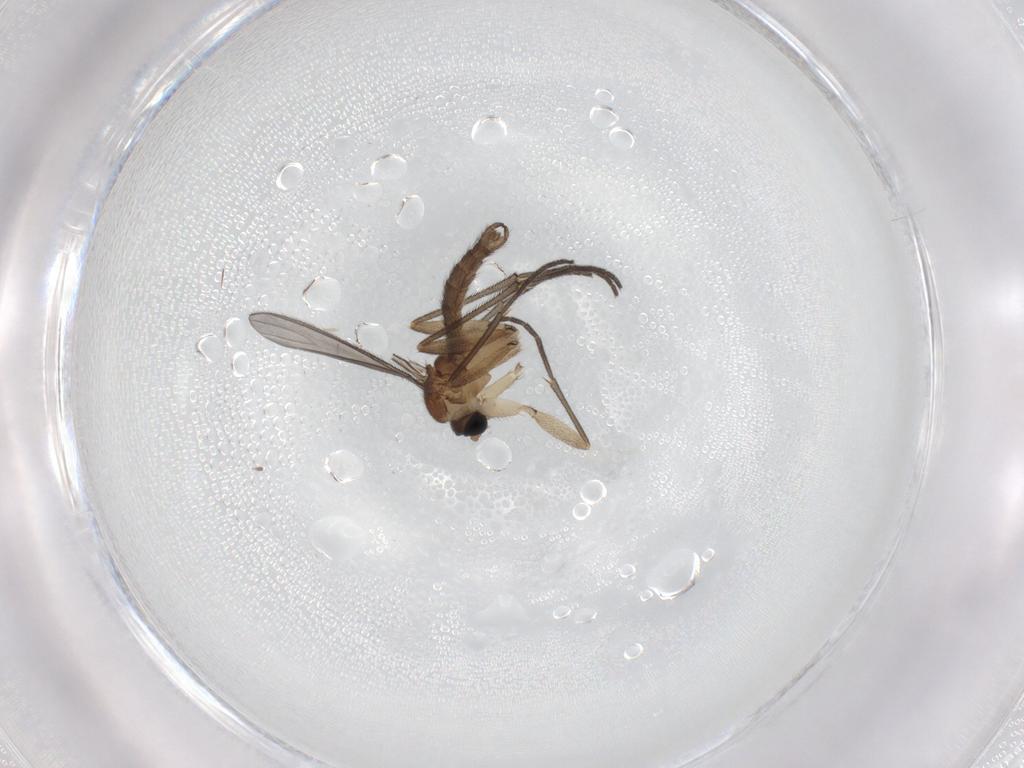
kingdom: Animalia
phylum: Arthropoda
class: Insecta
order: Diptera
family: Sciaridae
